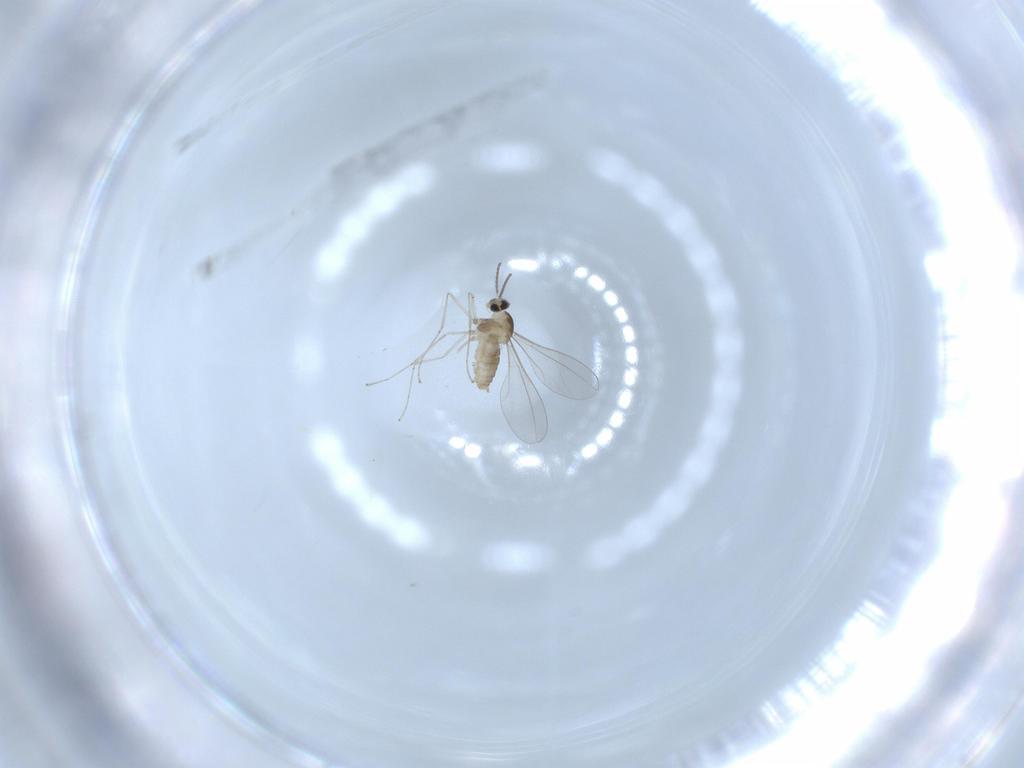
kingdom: Animalia
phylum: Arthropoda
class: Insecta
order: Diptera
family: Cecidomyiidae
